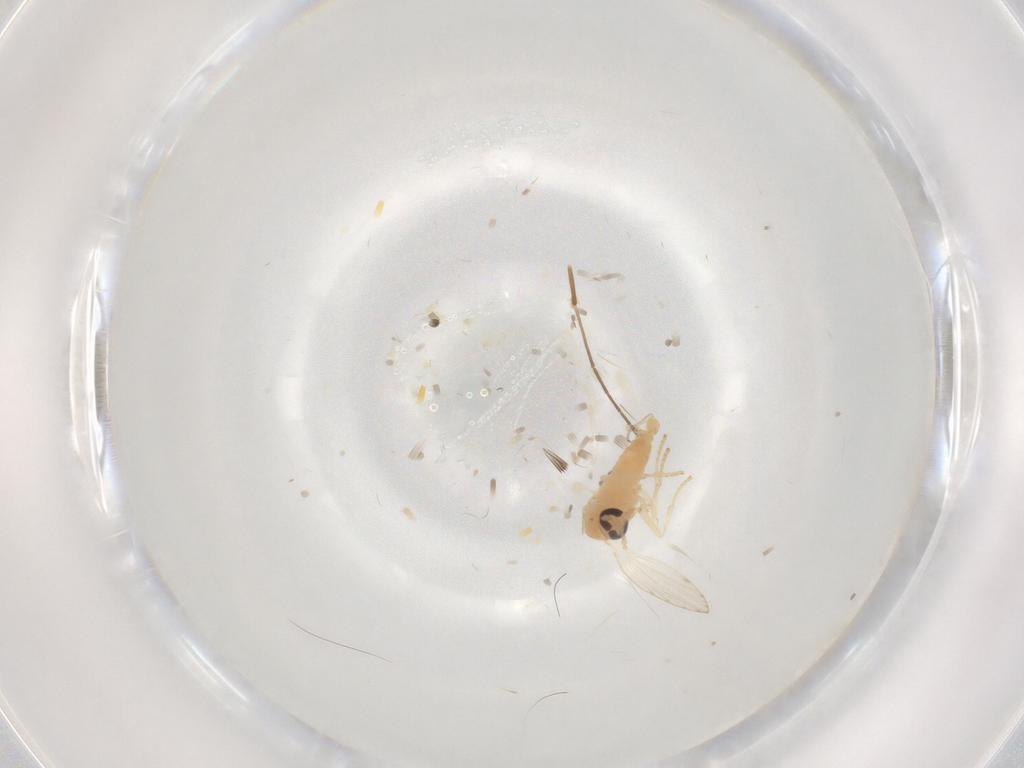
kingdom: Animalia
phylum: Arthropoda
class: Insecta
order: Diptera
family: Psychodidae
